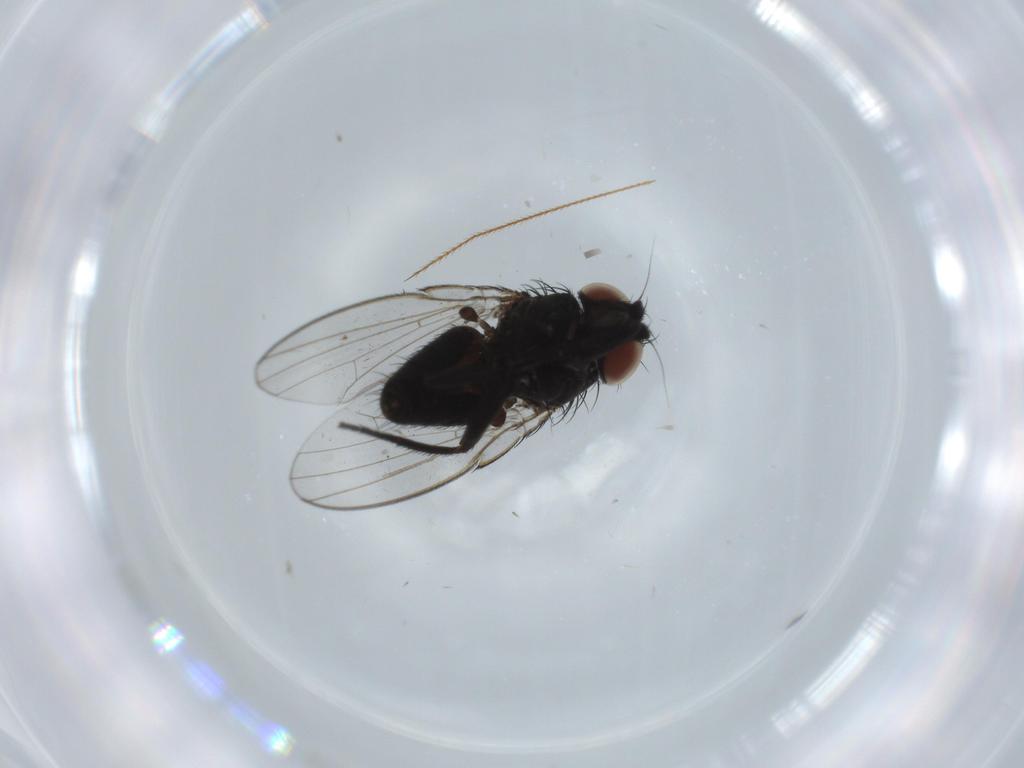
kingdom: Animalia
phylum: Arthropoda
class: Insecta
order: Diptera
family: Milichiidae
